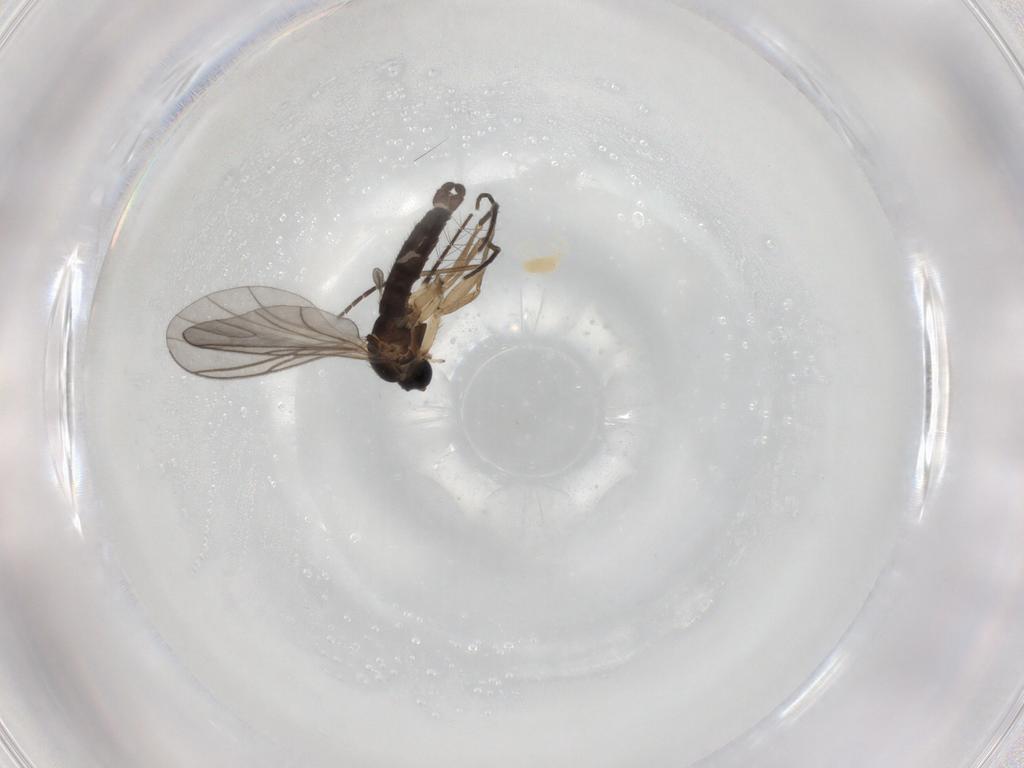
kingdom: Animalia
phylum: Arthropoda
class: Insecta
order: Diptera
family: Sciaridae
